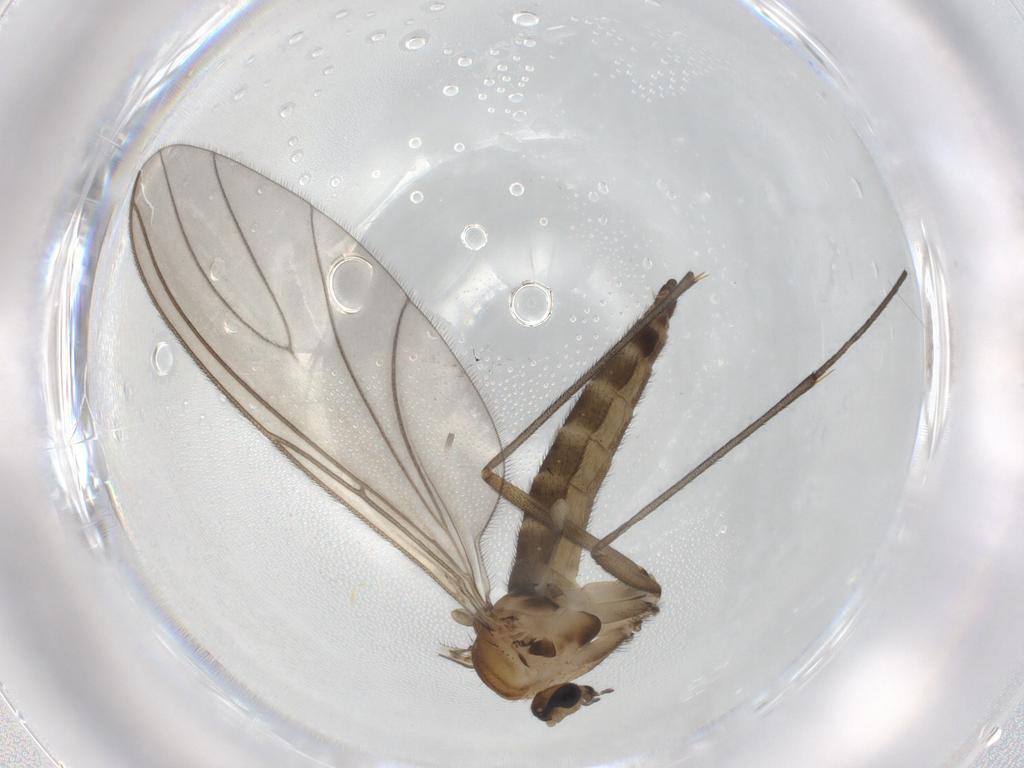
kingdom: Animalia
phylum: Arthropoda
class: Insecta
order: Diptera
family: Sciaridae
